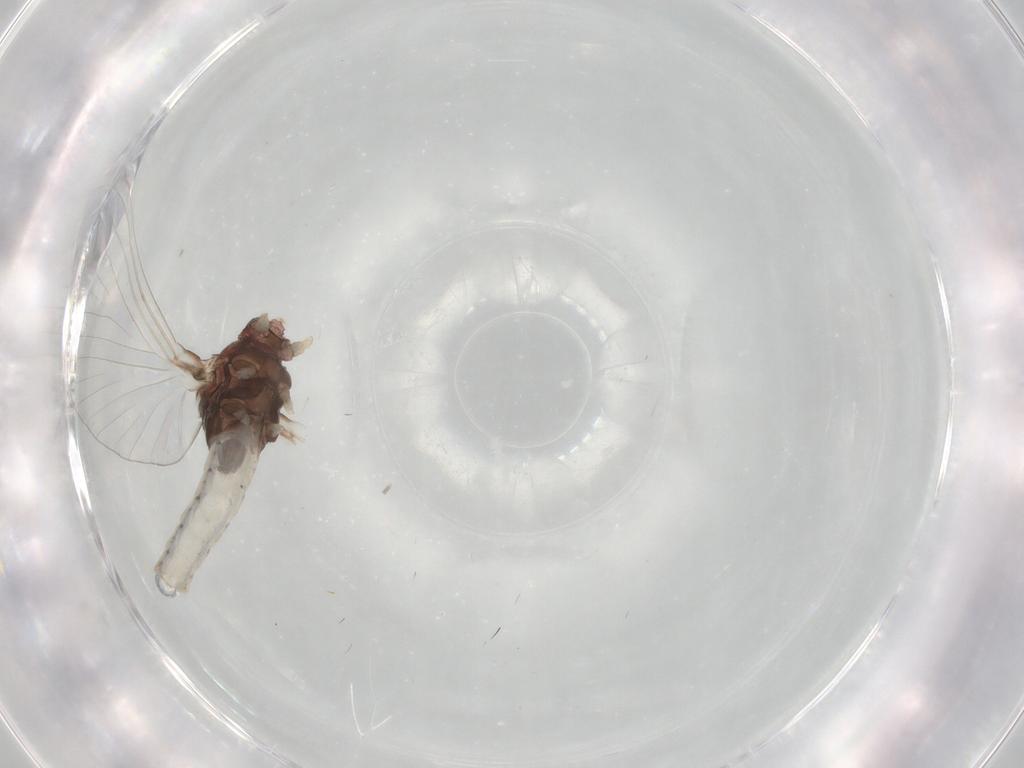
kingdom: Animalia
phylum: Arthropoda
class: Insecta
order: Ephemeroptera
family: Baetidae
